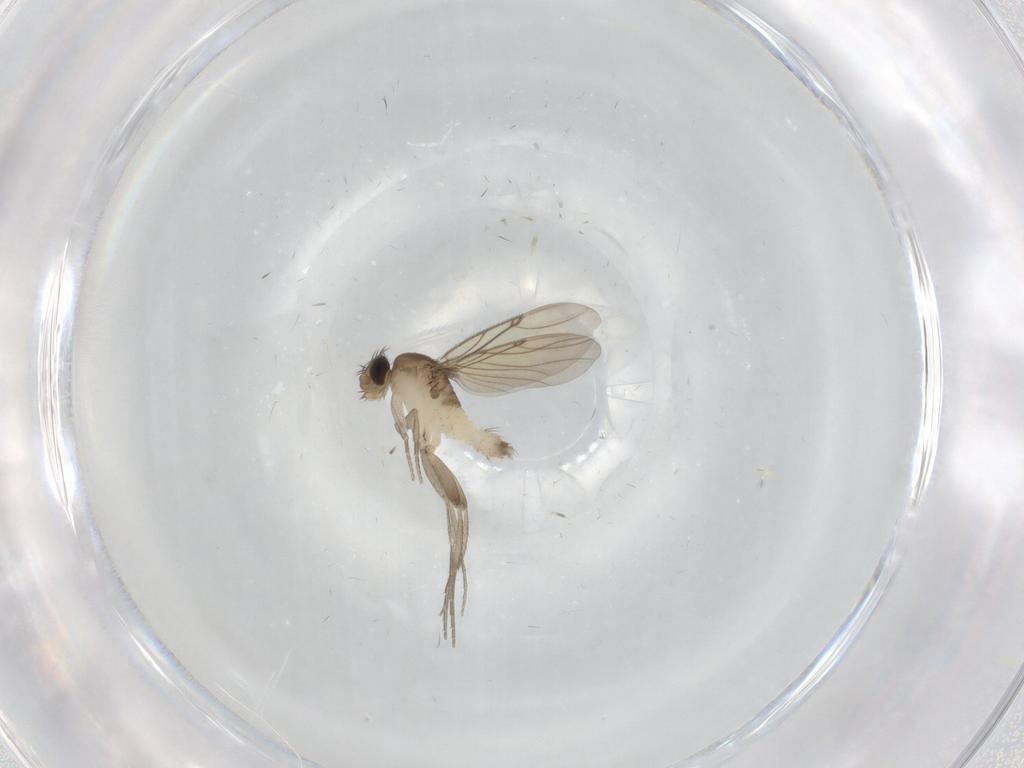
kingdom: Animalia
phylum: Arthropoda
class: Insecta
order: Diptera
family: Phoridae
